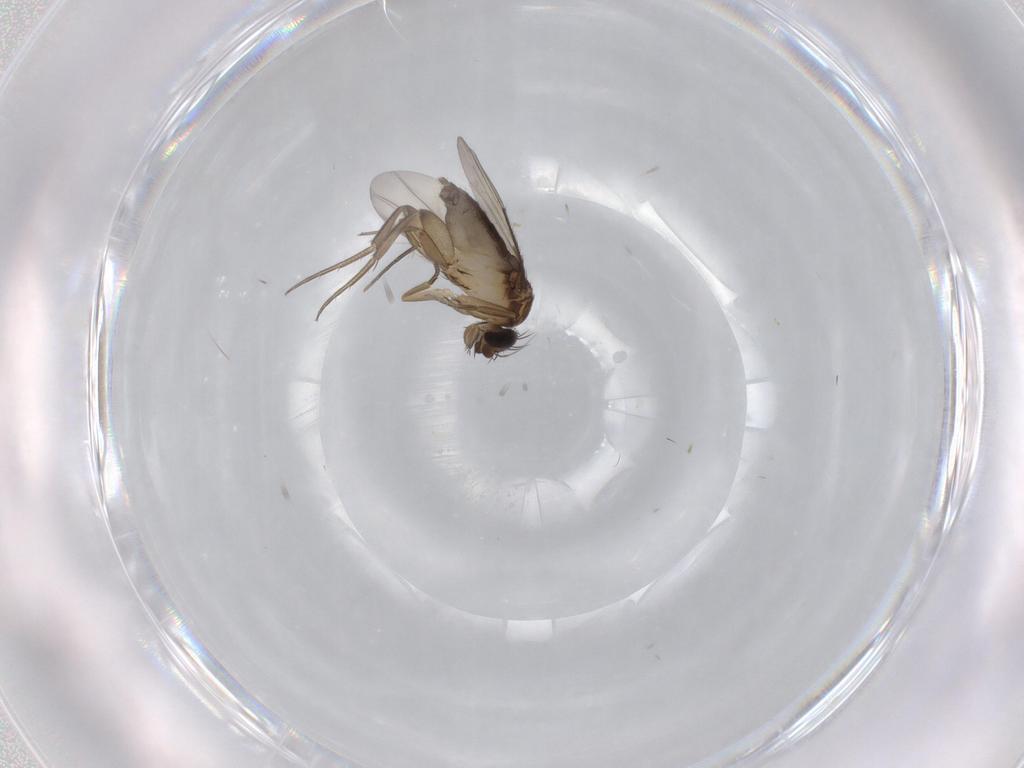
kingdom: Animalia
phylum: Arthropoda
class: Insecta
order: Diptera
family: Phoridae
